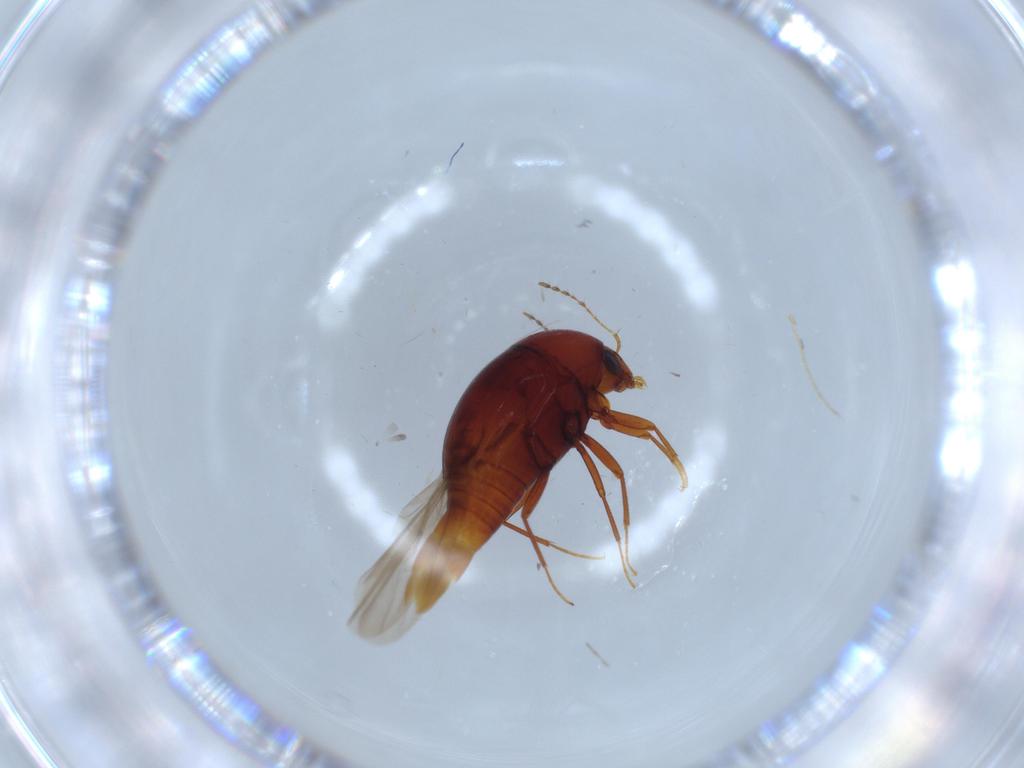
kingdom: Animalia
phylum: Arthropoda
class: Insecta
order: Coleoptera
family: Staphylinidae
